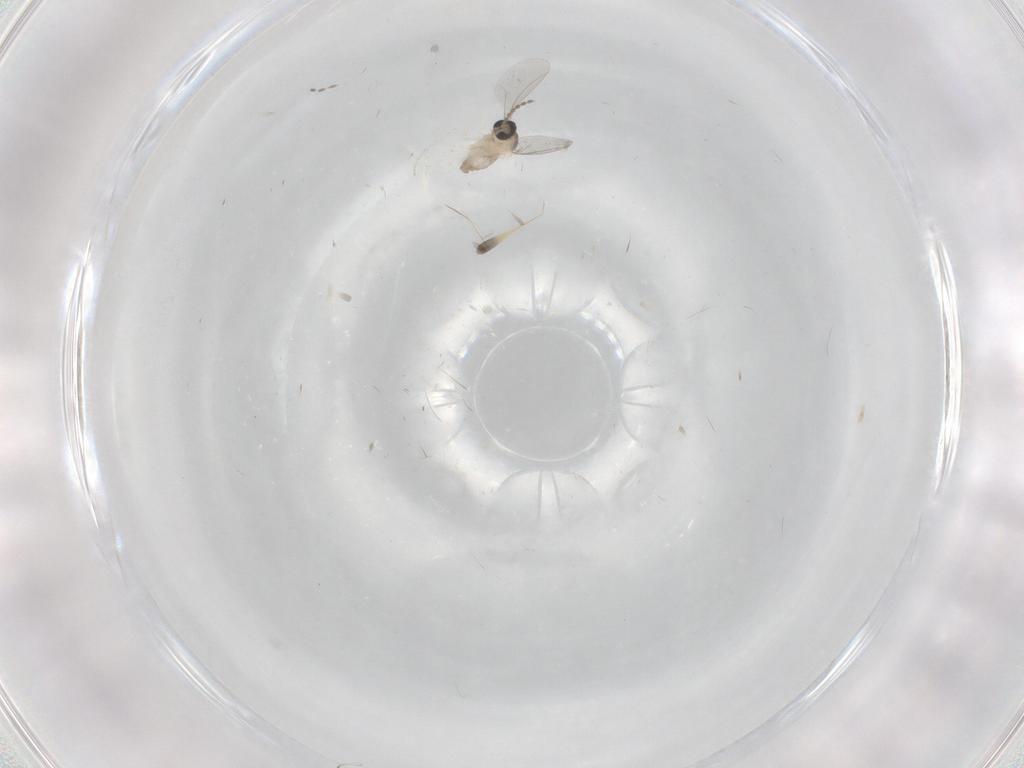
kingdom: Animalia
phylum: Arthropoda
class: Insecta
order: Diptera
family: Cecidomyiidae
